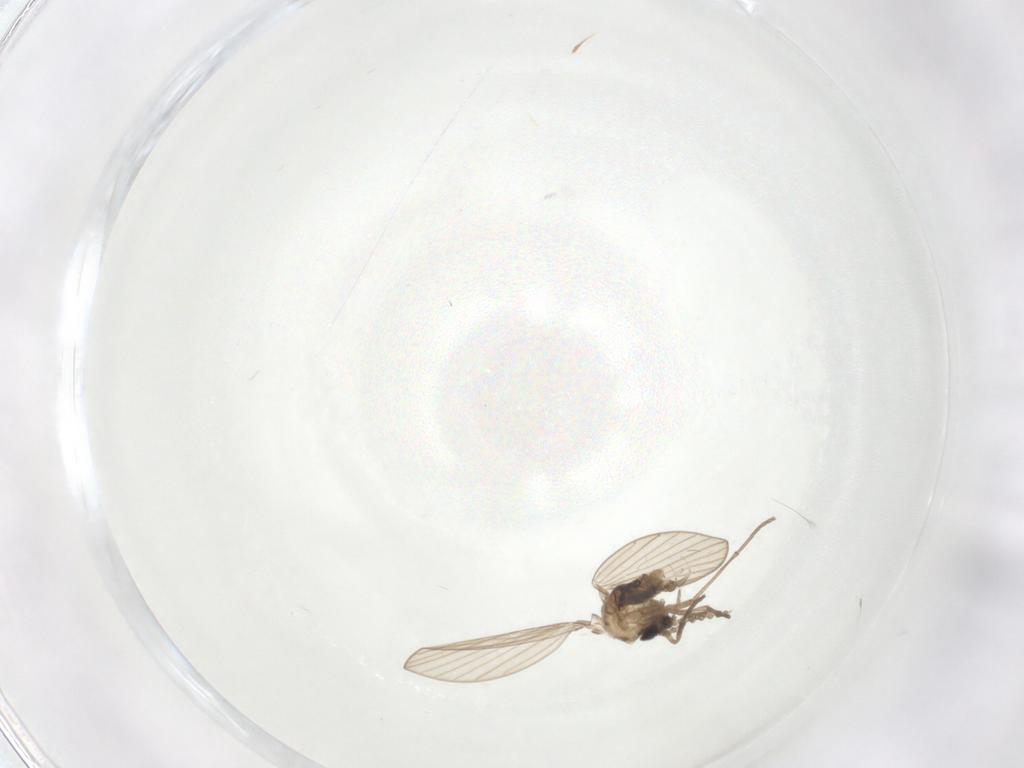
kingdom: Animalia
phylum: Arthropoda
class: Insecta
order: Diptera
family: Psychodidae
